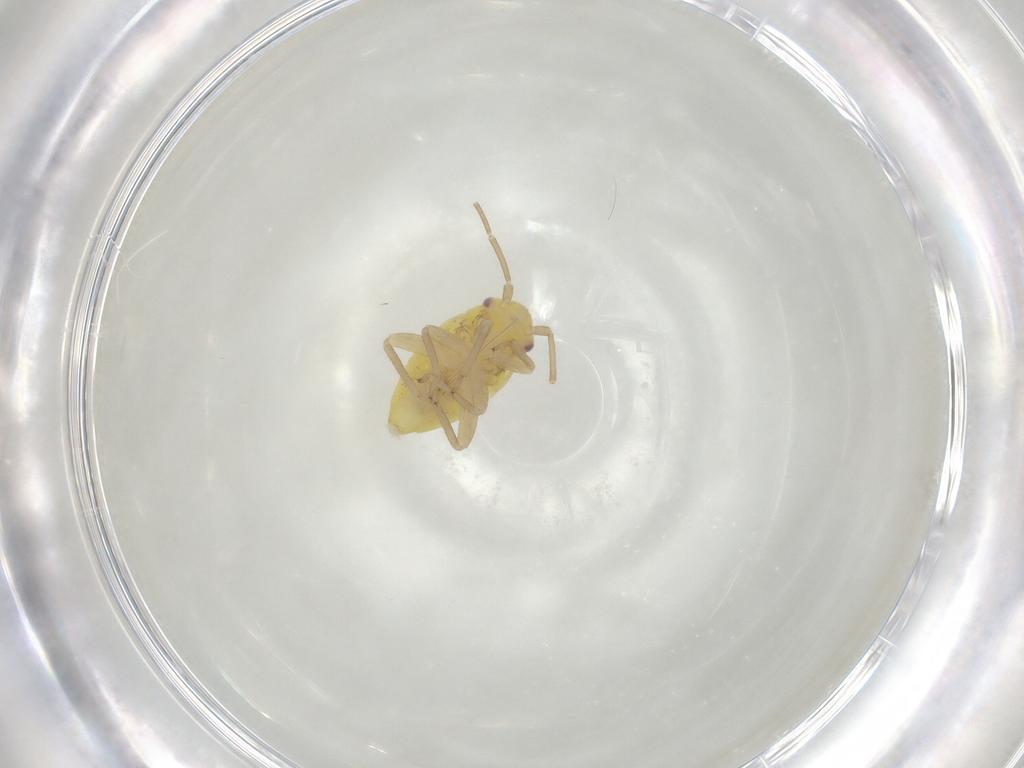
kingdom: Animalia
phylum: Arthropoda
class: Insecta
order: Hemiptera
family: Miridae
